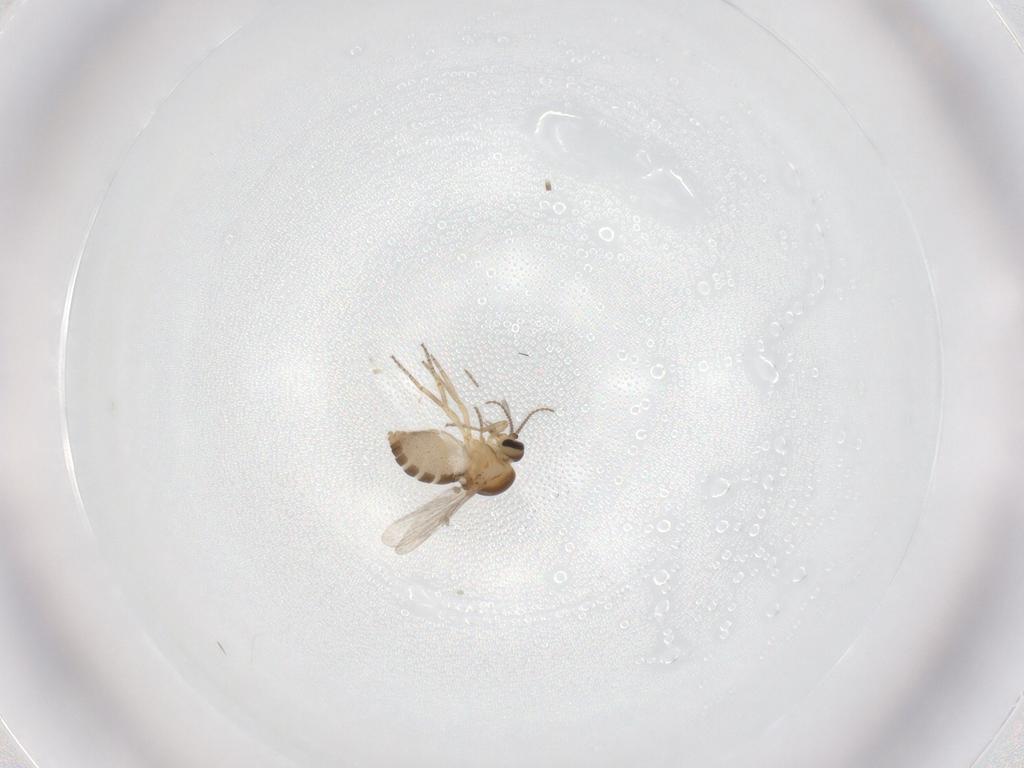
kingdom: Animalia
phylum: Arthropoda
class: Insecta
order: Diptera
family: Ceratopogonidae
